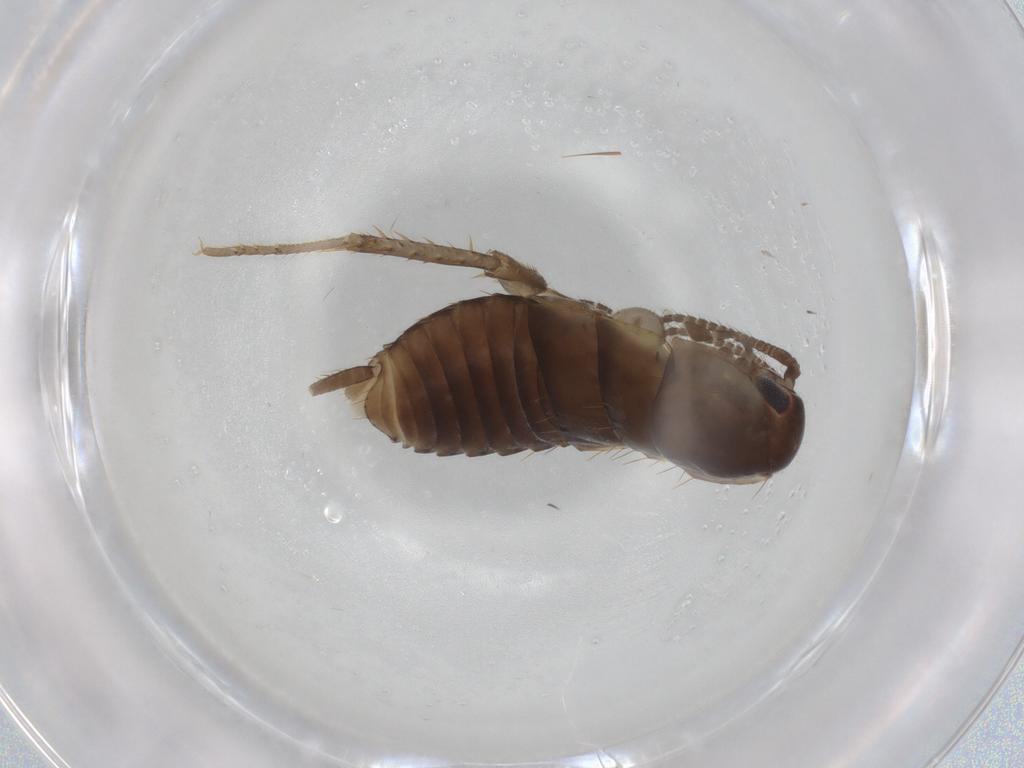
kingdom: Animalia
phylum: Arthropoda
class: Insecta
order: Blattodea
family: Ectobiidae
